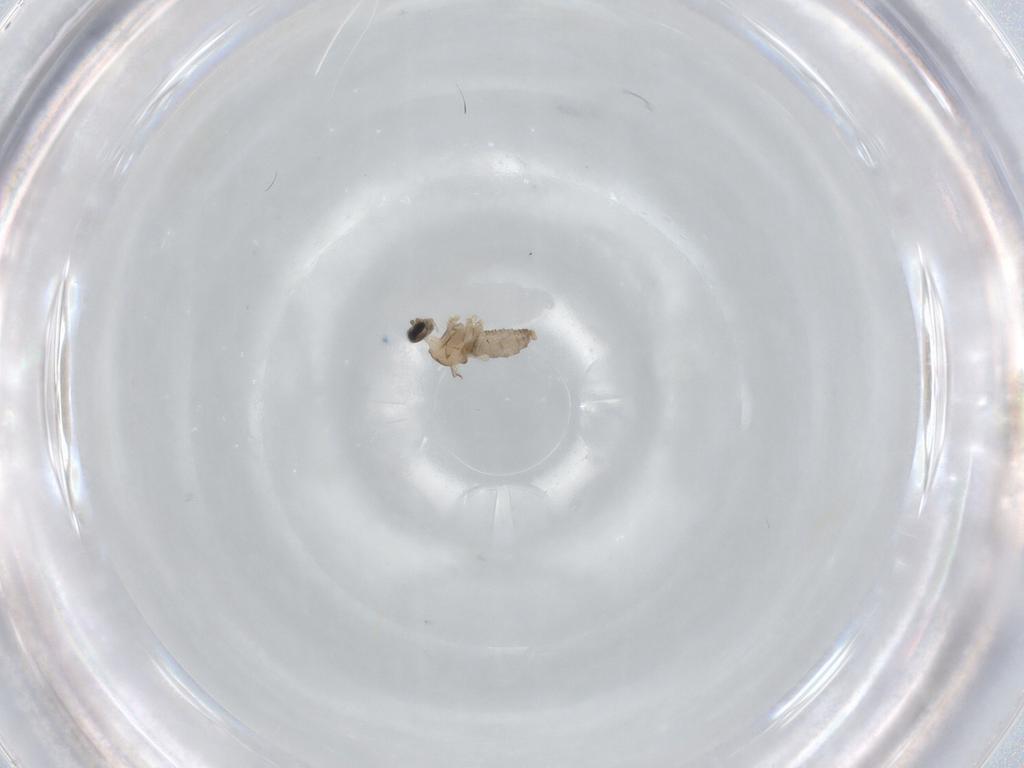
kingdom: Animalia
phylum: Arthropoda
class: Insecta
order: Diptera
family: Cecidomyiidae
